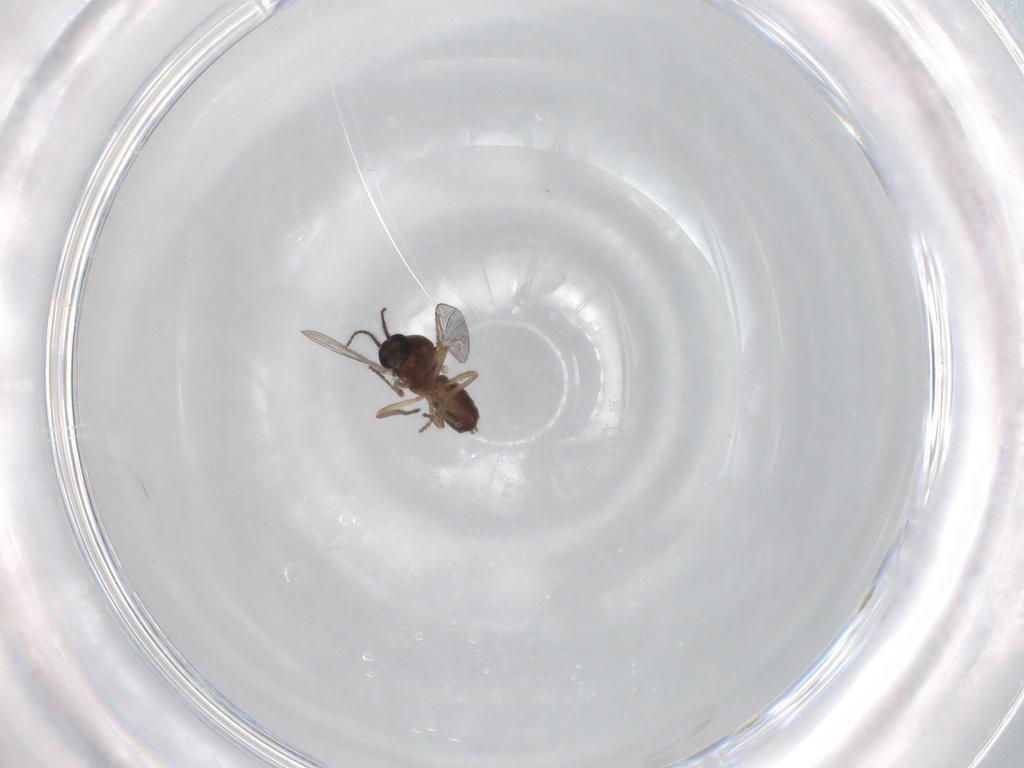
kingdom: Animalia
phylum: Arthropoda
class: Insecta
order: Diptera
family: Ceratopogonidae
